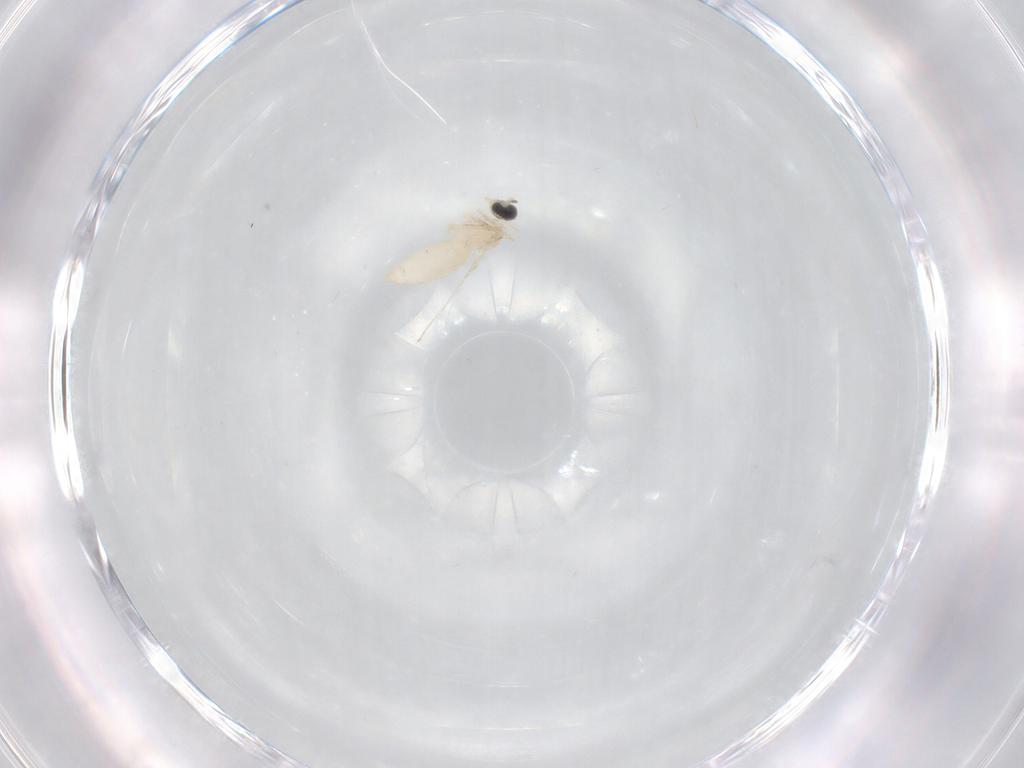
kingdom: Animalia
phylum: Arthropoda
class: Insecta
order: Diptera
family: Phoridae
